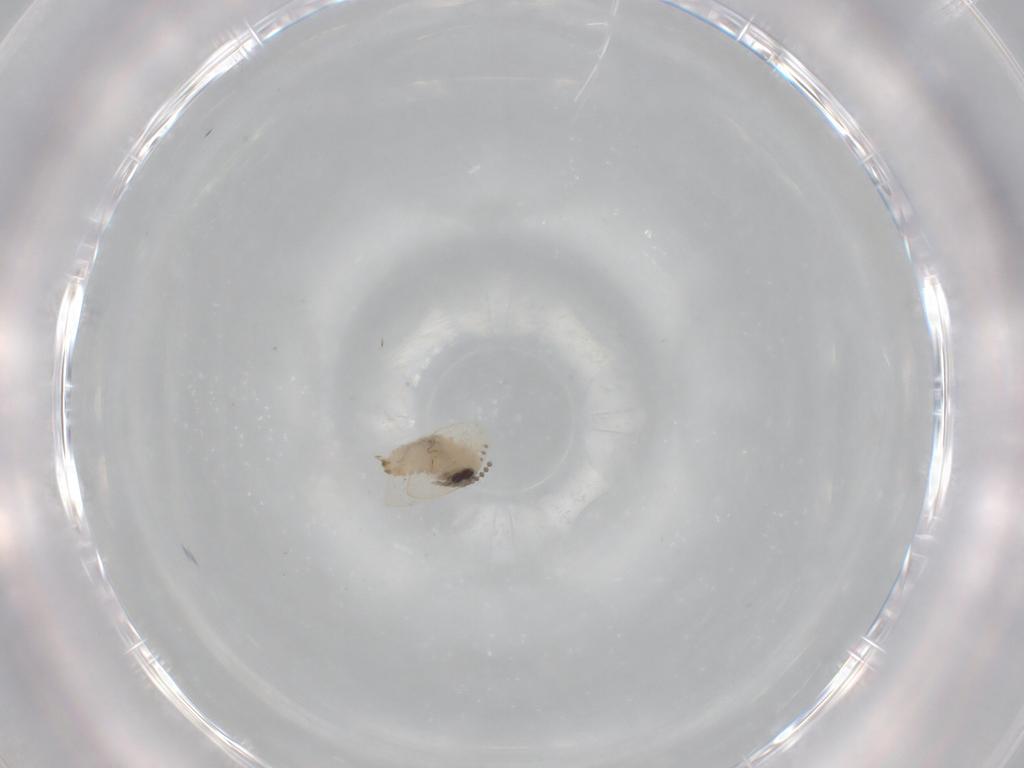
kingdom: Animalia
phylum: Arthropoda
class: Insecta
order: Diptera
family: Psychodidae
